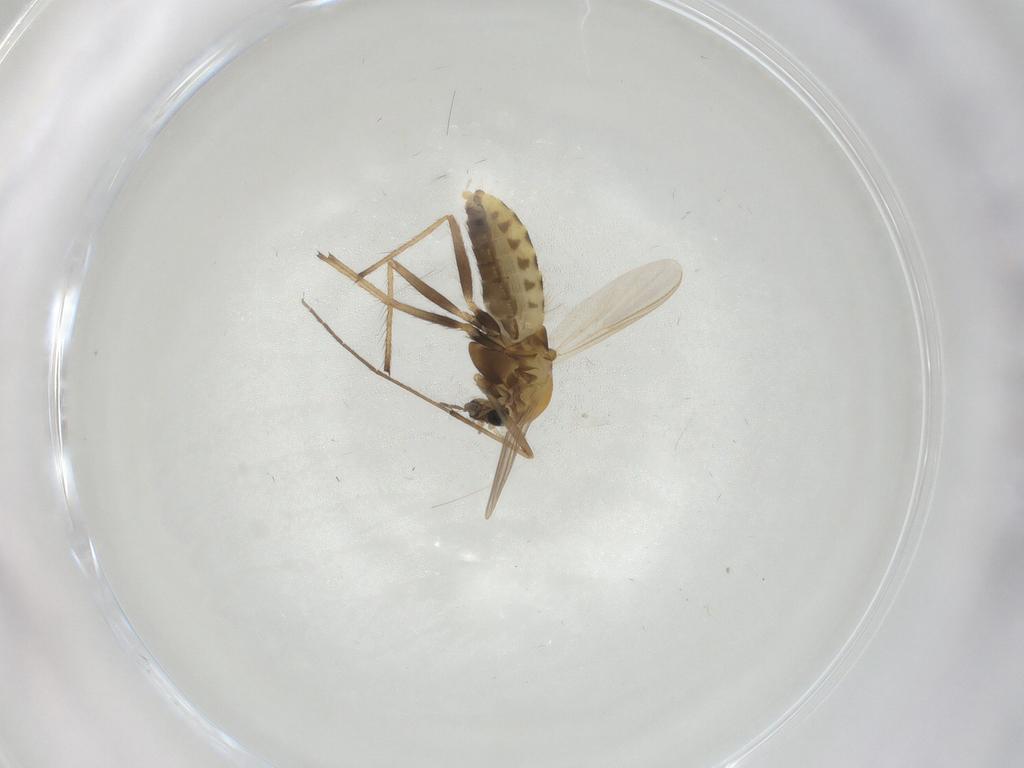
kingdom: Animalia
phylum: Arthropoda
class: Insecta
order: Diptera
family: Chironomidae
